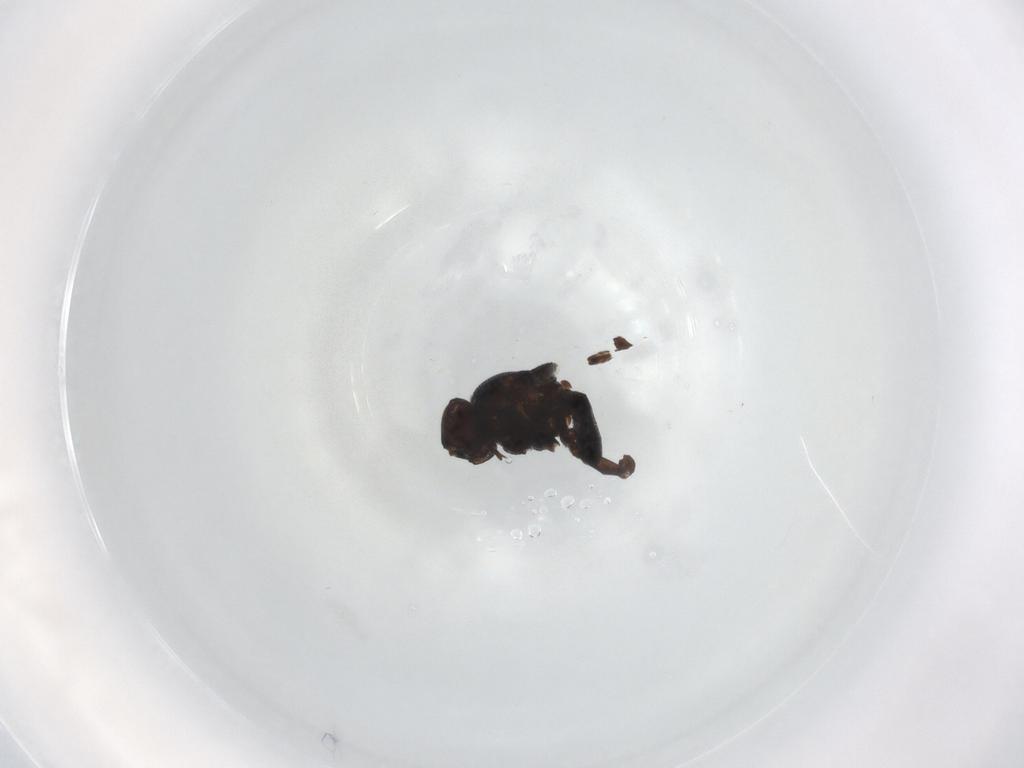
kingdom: Animalia
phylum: Arthropoda
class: Insecta
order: Diptera
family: Chloropidae
